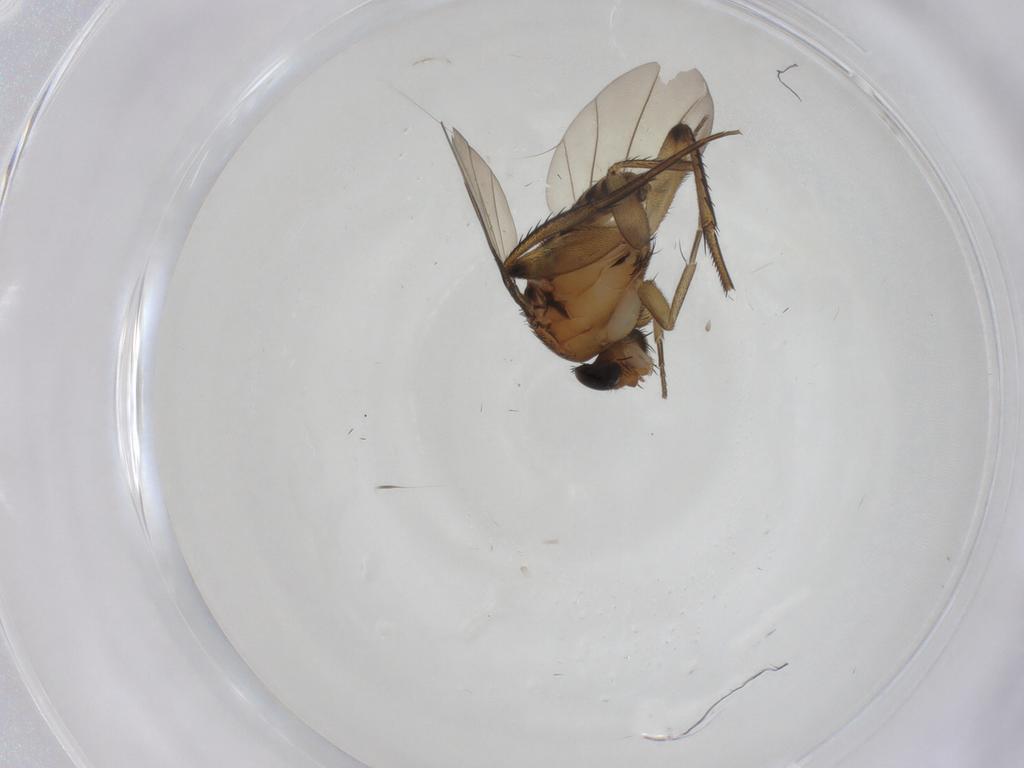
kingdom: Animalia
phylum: Arthropoda
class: Insecta
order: Diptera
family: Phoridae
